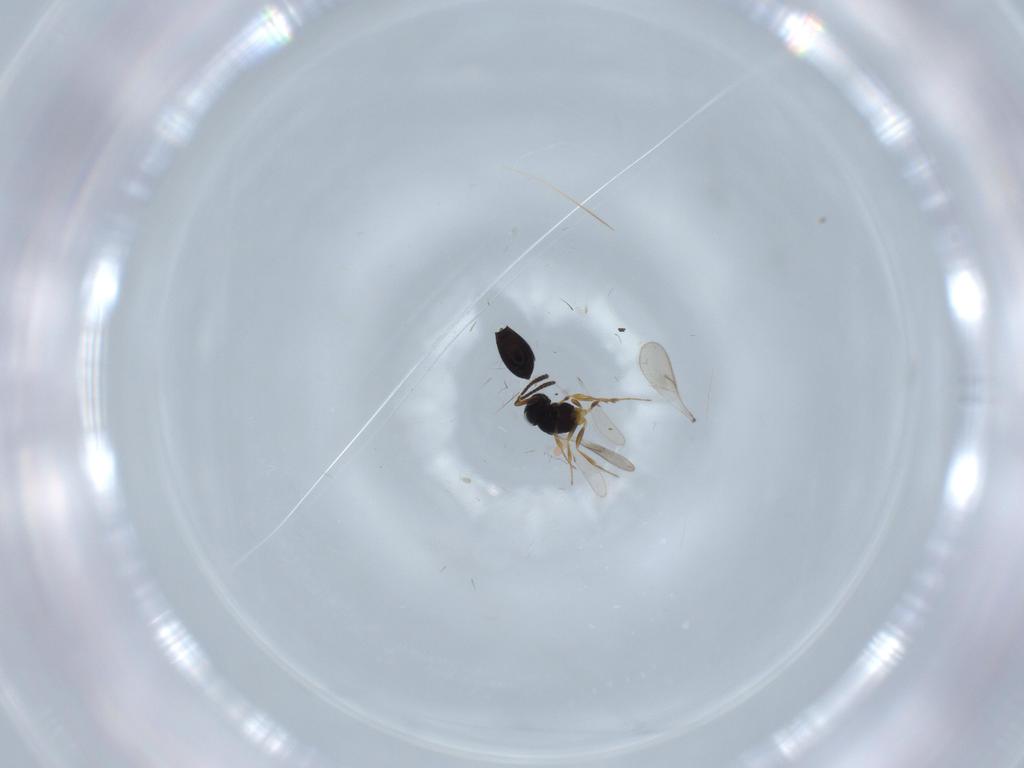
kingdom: Animalia
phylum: Arthropoda
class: Insecta
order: Hymenoptera
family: Scelionidae
